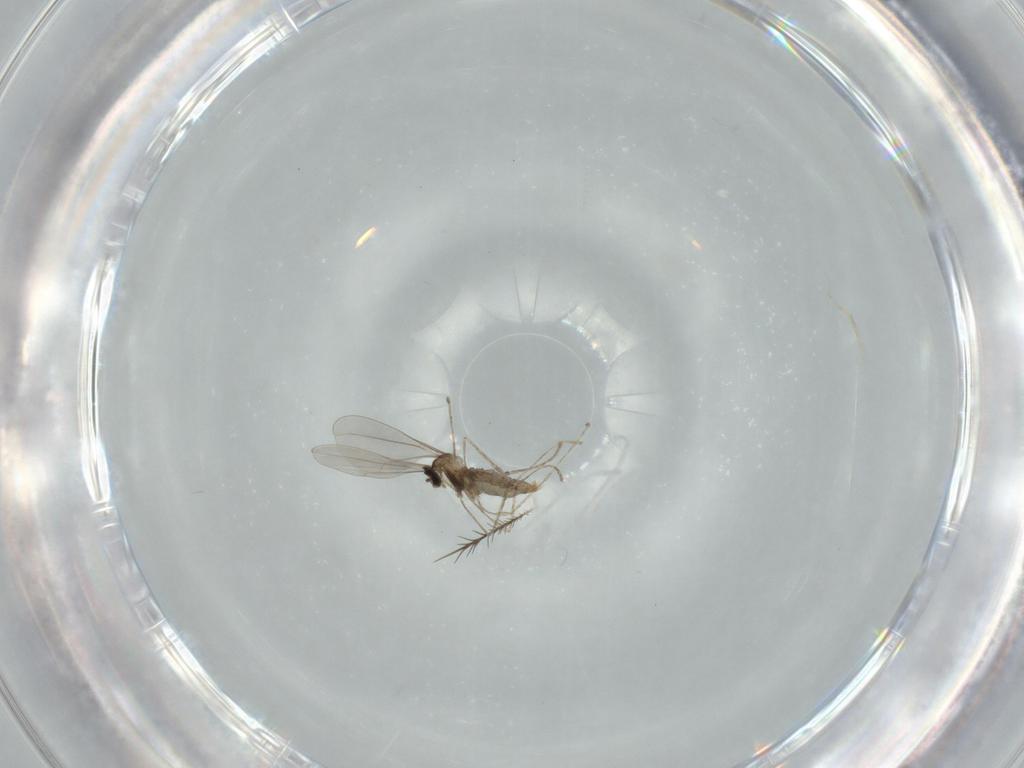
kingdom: Animalia
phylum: Arthropoda
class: Insecta
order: Diptera
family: Cecidomyiidae
